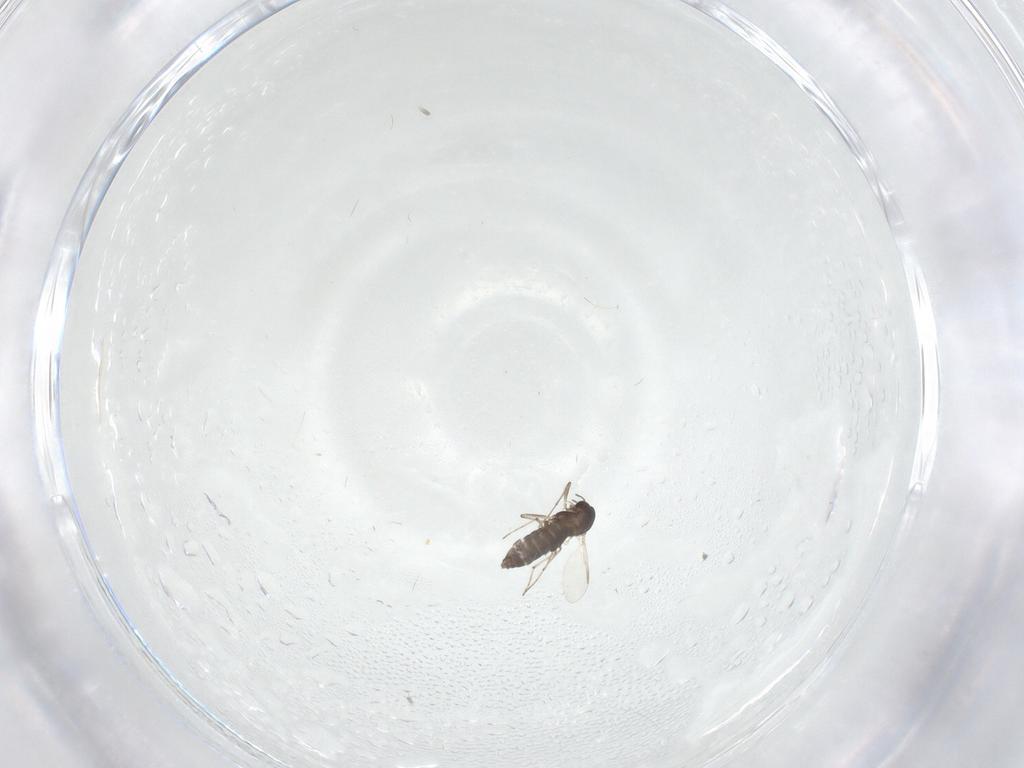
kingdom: Animalia
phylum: Arthropoda
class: Insecta
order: Diptera
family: Chironomidae
